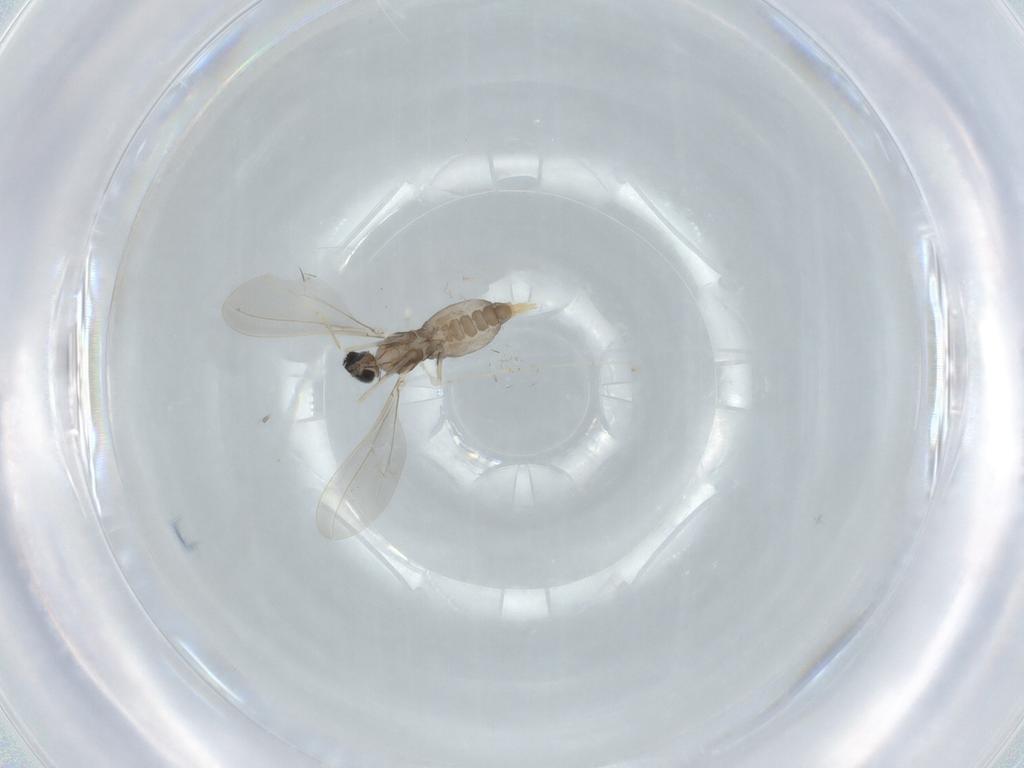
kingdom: Animalia
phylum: Arthropoda
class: Insecta
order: Diptera
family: Cecidomyiidae
